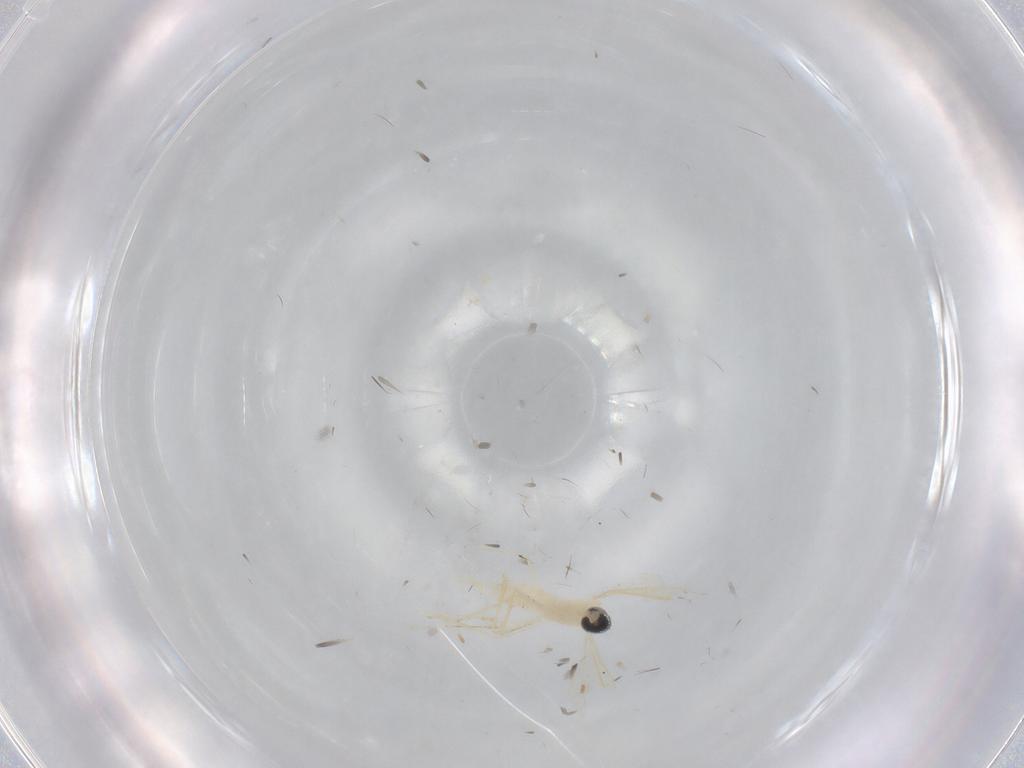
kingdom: Animalia
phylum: Arthropoda
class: Insecta
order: Diptera
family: Cecidomyiidae
